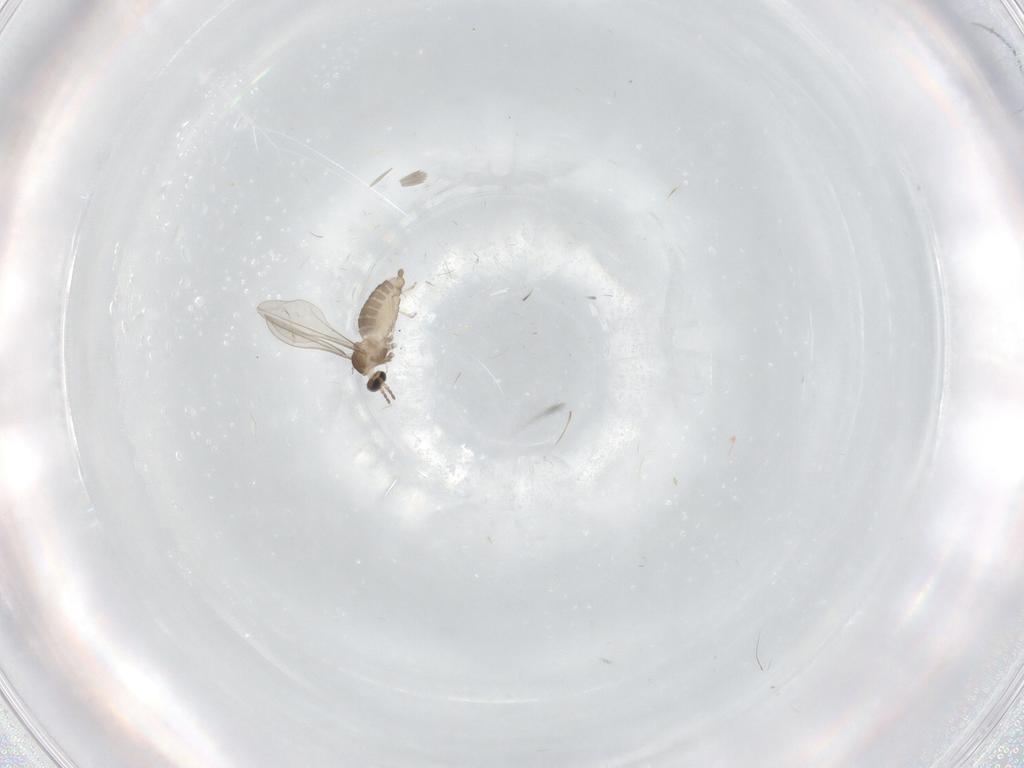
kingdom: Animalia
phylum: Arthropoda
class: Insecta
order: Diptera
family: Cecidomyiidae
